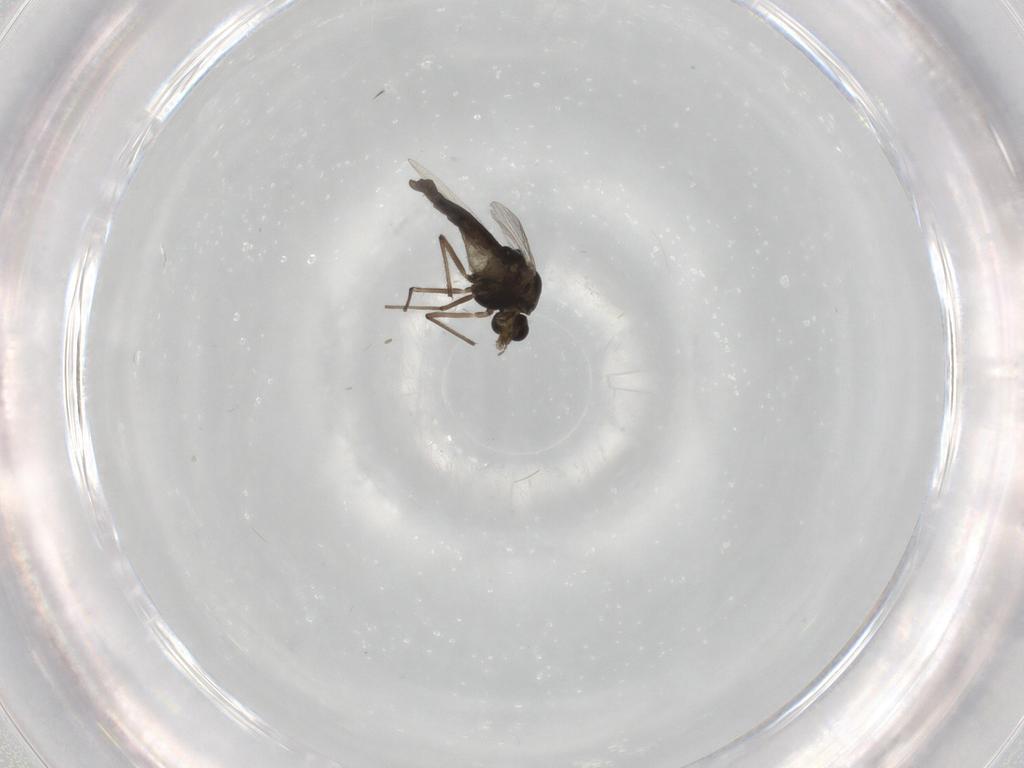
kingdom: Animalia
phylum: Arthropoda
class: Insecta
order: Diptera
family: Chironomidae
